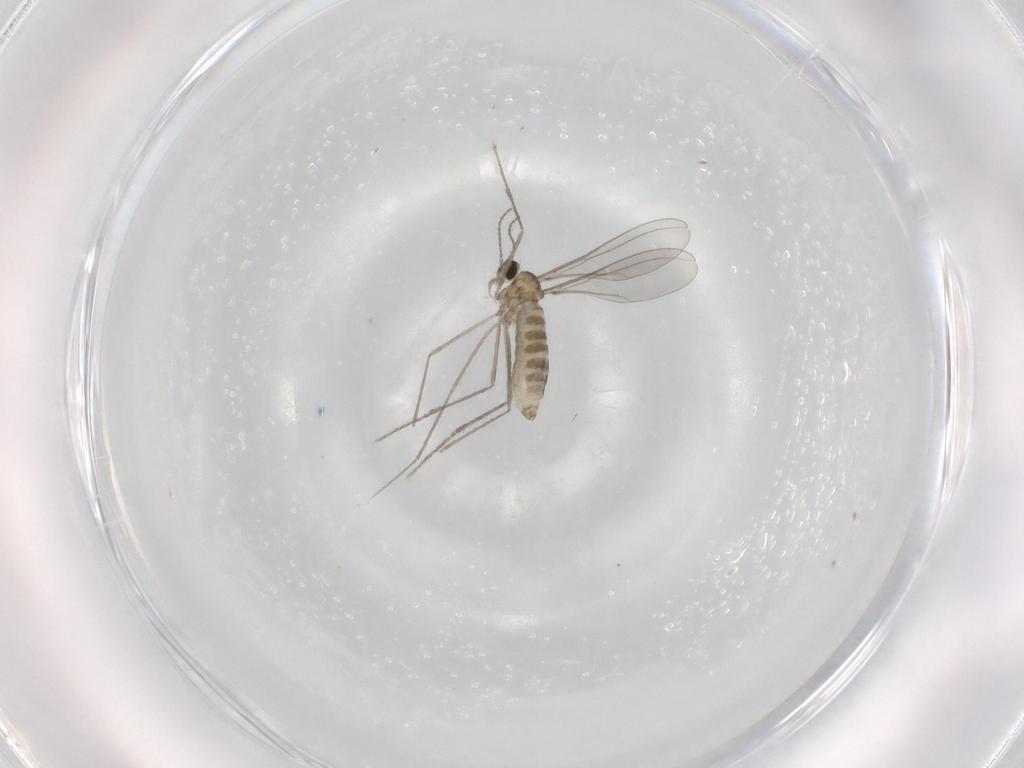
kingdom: Animalia
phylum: Arthropoda
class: Insecta
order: Diptera
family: Cecidomyiidae
